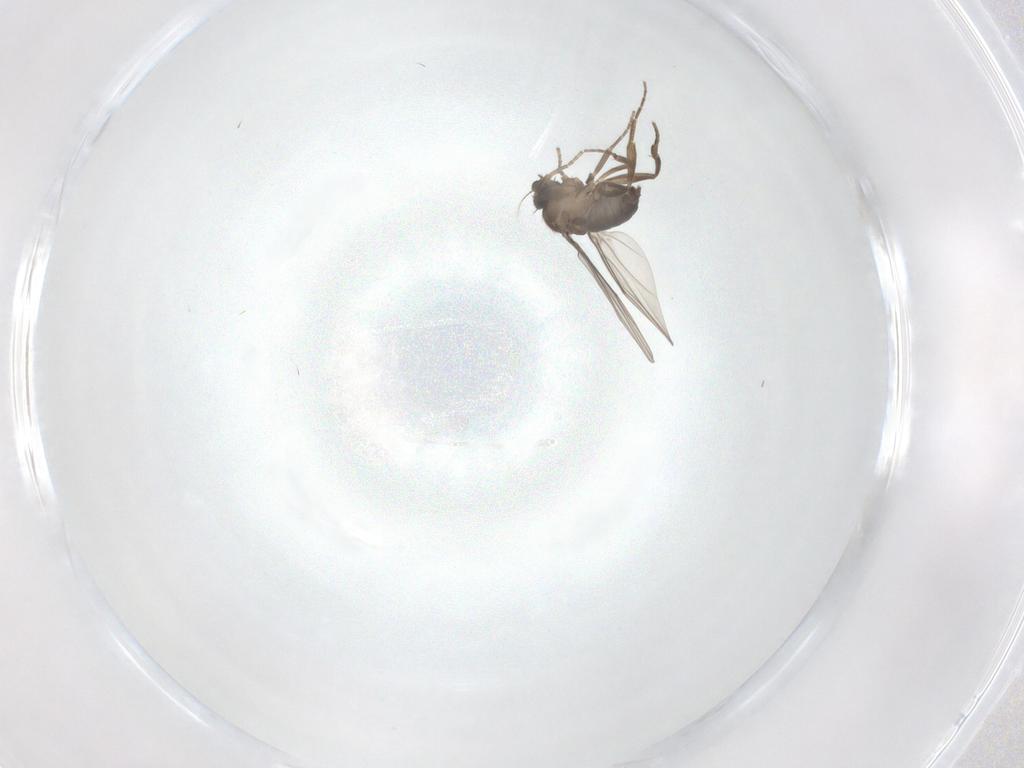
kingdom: Animalia
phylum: Arthropoda
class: Insecta
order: Diptera
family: Phoridae
